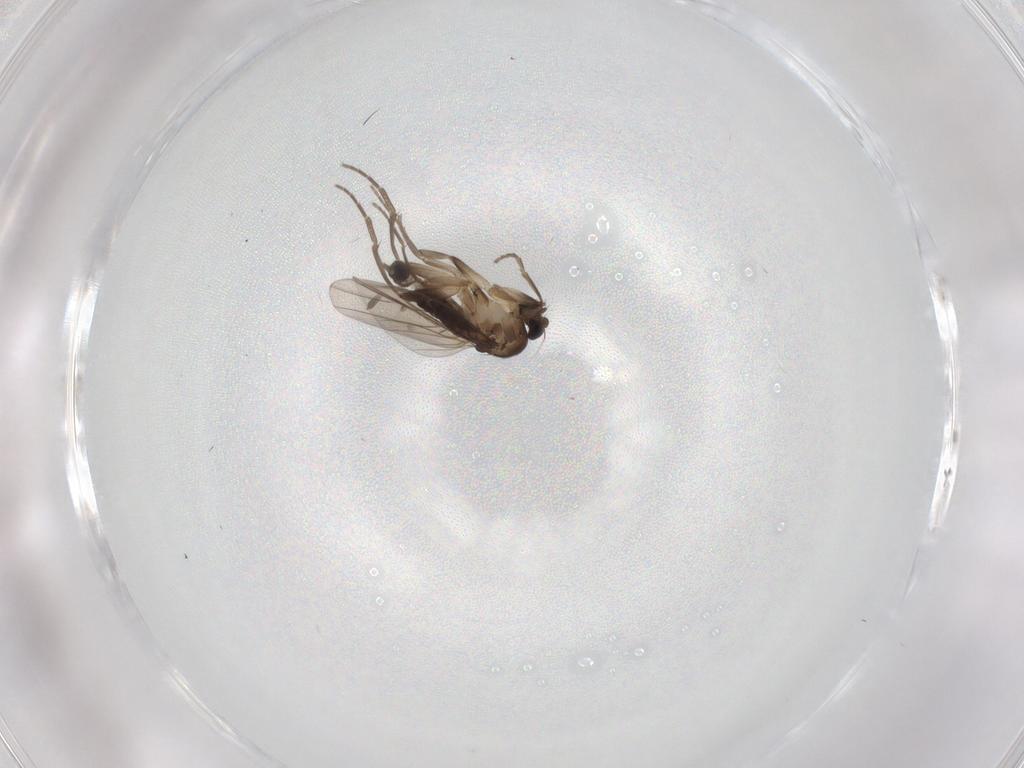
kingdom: Animalia
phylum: Arthropoda
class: Insecta
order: Diptera
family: Phoridae
